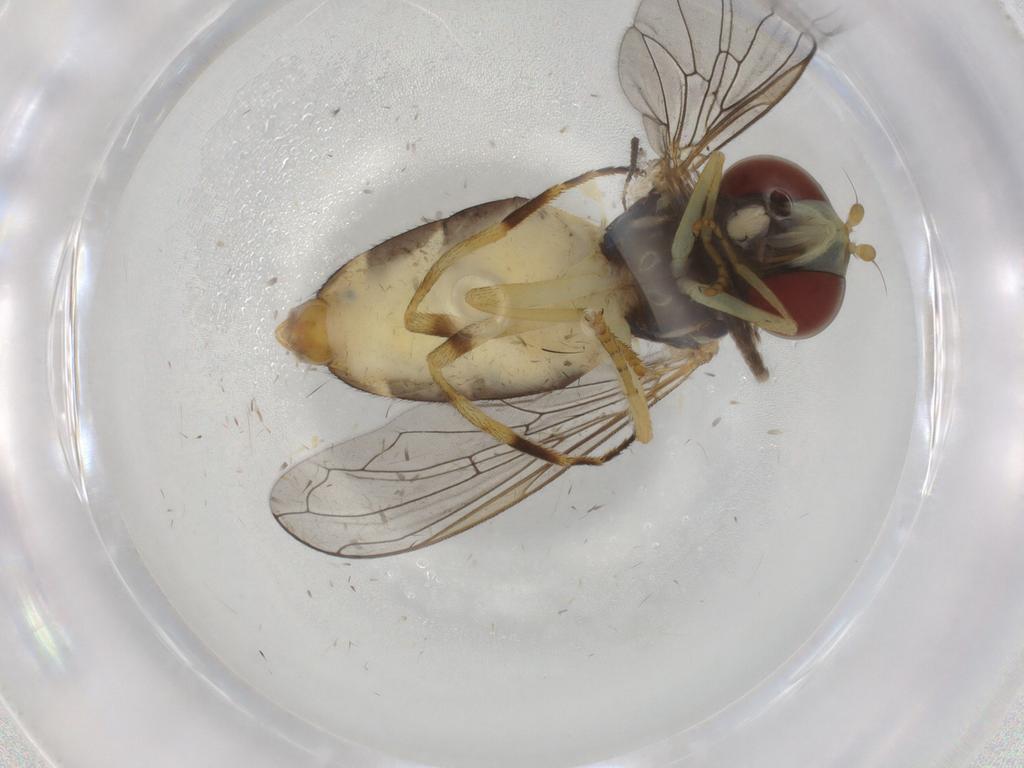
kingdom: Animalia
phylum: Arthropoda
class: Insecta
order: Diptera
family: Syrphidae
